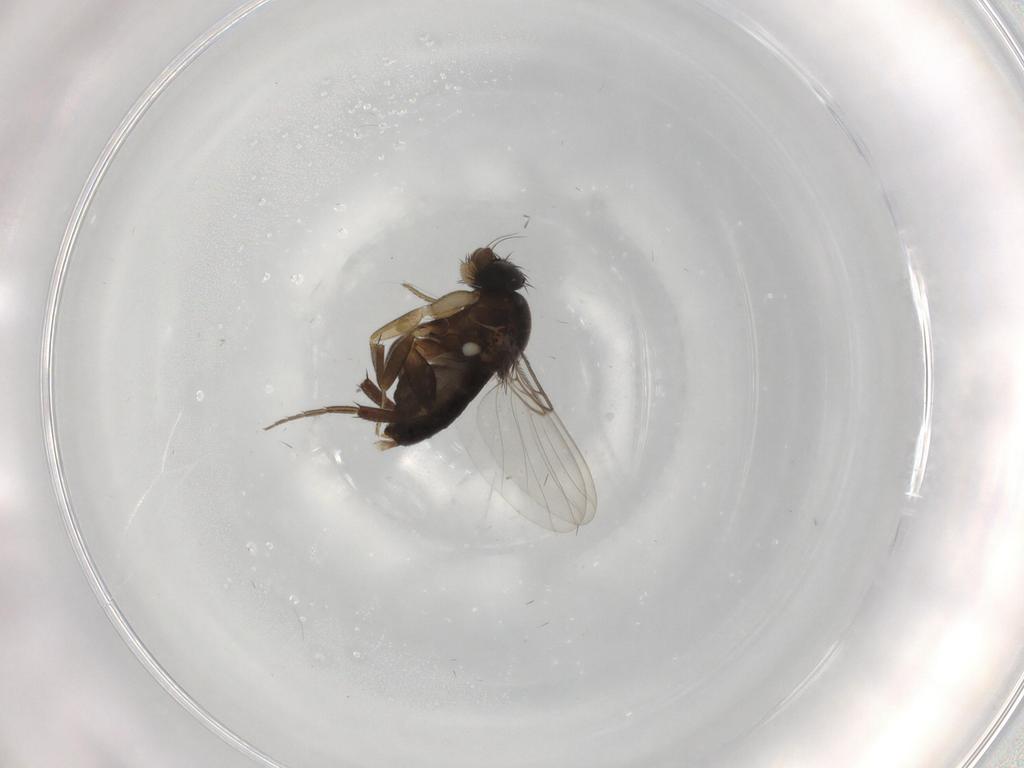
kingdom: Animalia
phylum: Arthropoda
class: Insecta
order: Diptera
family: Phoridae
